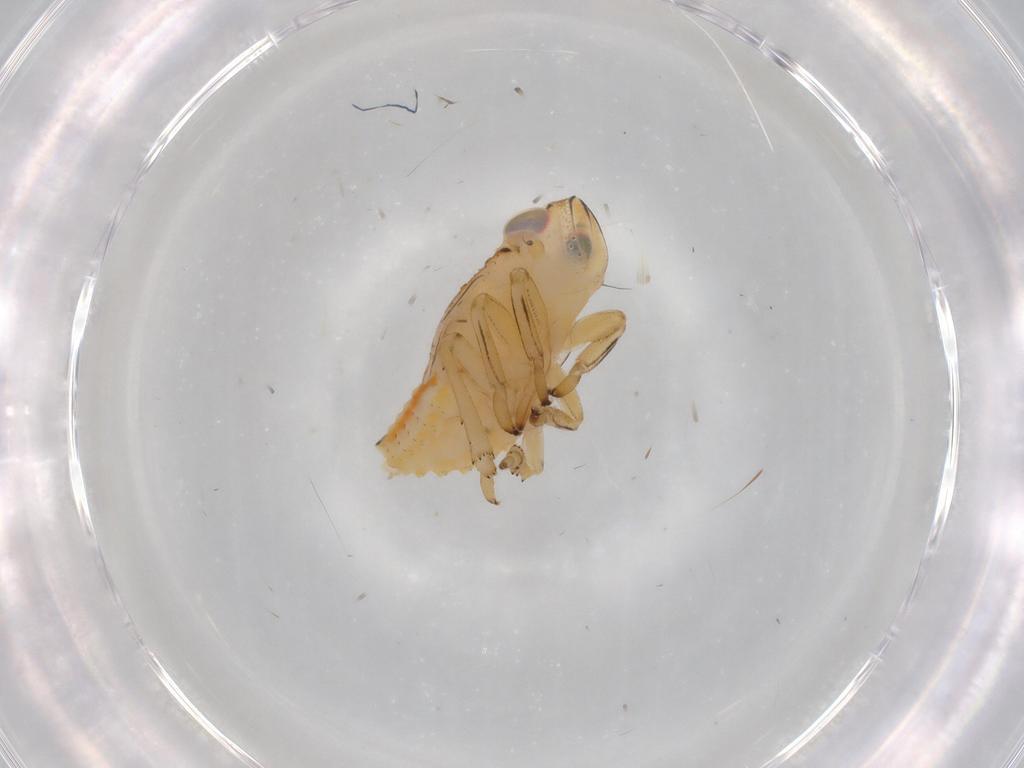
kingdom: Animalia
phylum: Arthropoda
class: Insecta
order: Hemiptera
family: Issidae
